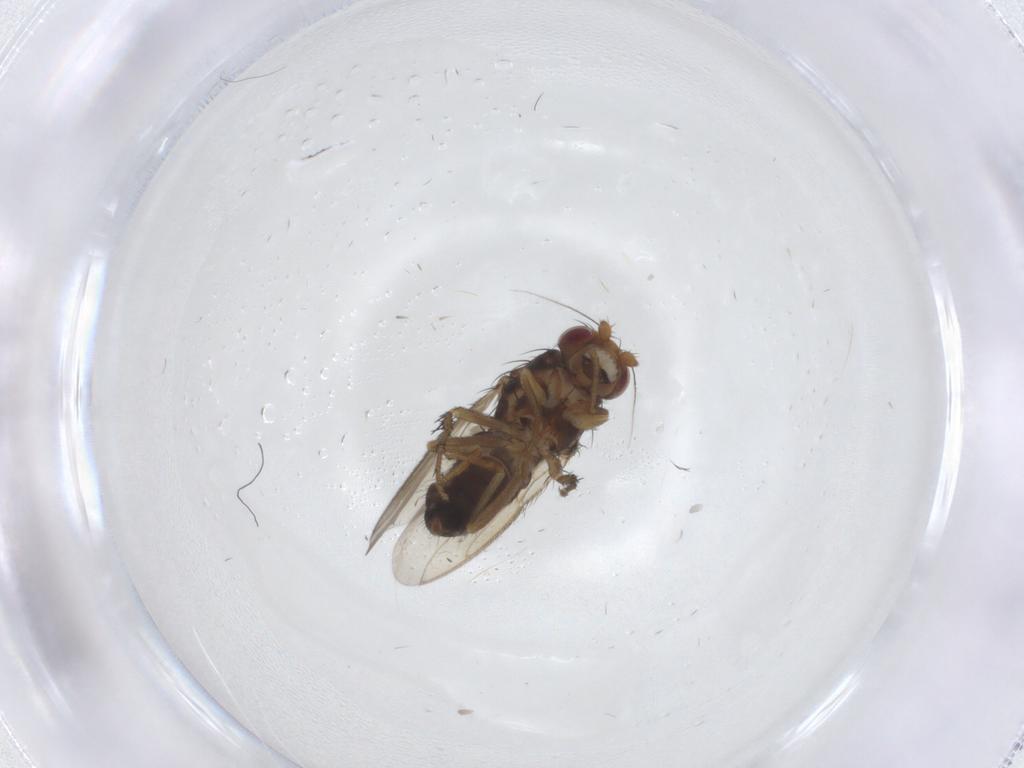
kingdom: Animalia
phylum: Arthropoda
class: Insecta
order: Diptera
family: Sphaeroceridae
